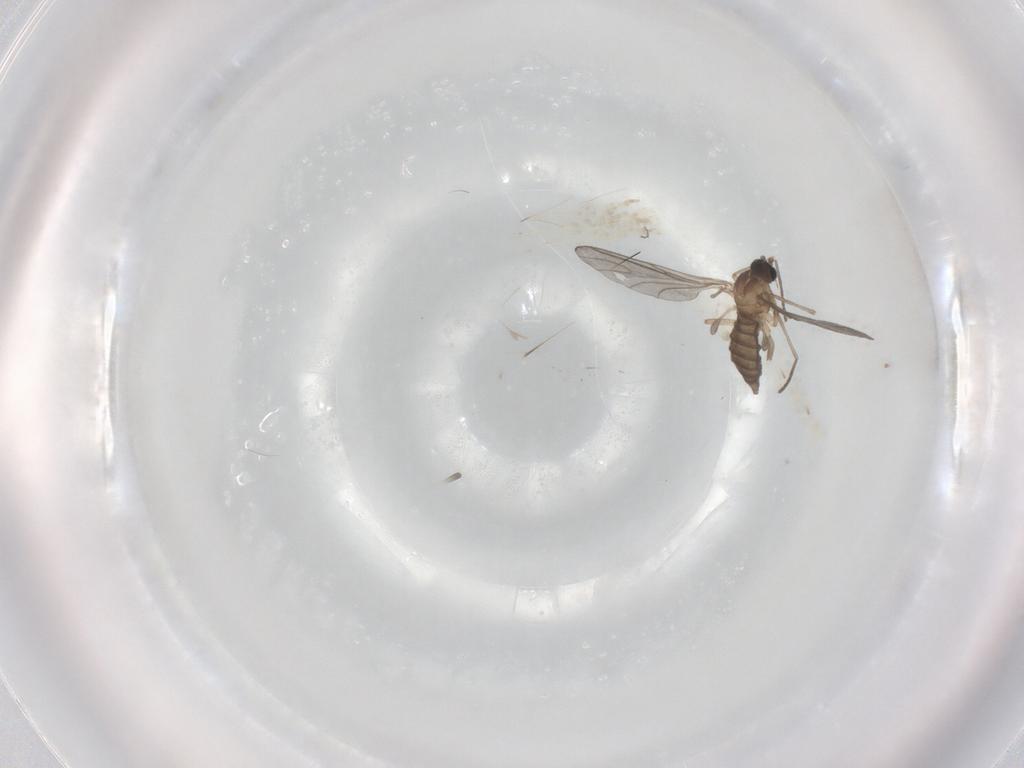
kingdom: Animalia
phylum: Arthropoda
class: Insecta
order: Diptera
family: Sciaridae
